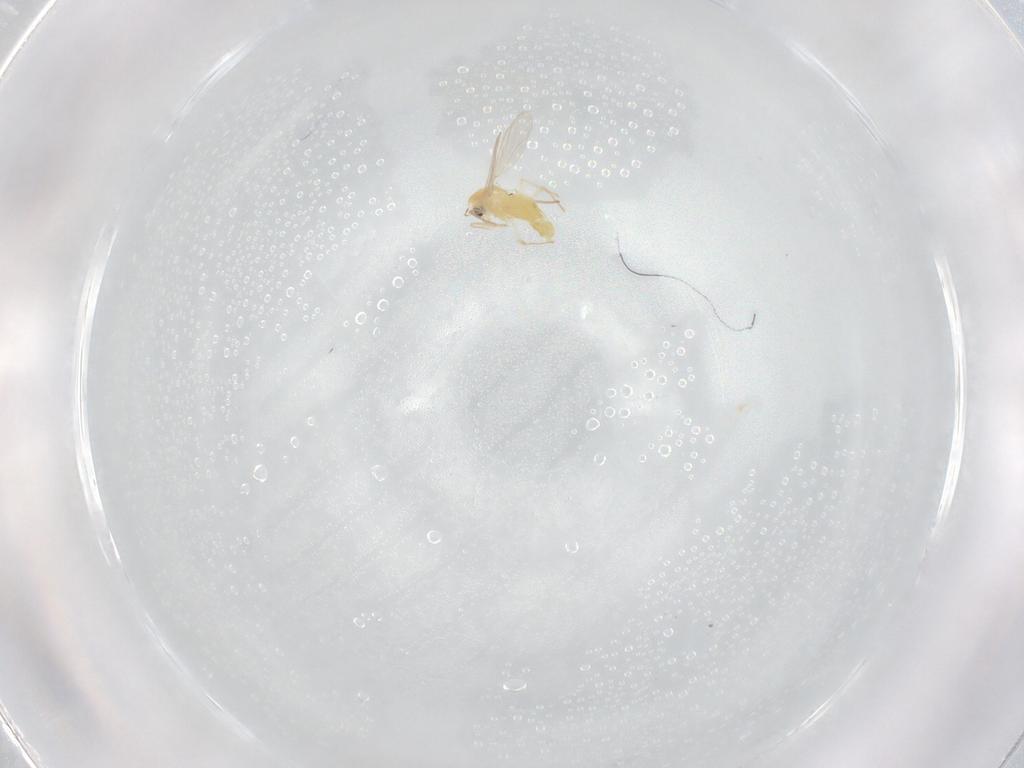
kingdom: Animalia
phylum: Arthropoda
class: Insecta
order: Diptera
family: Chironomidae
